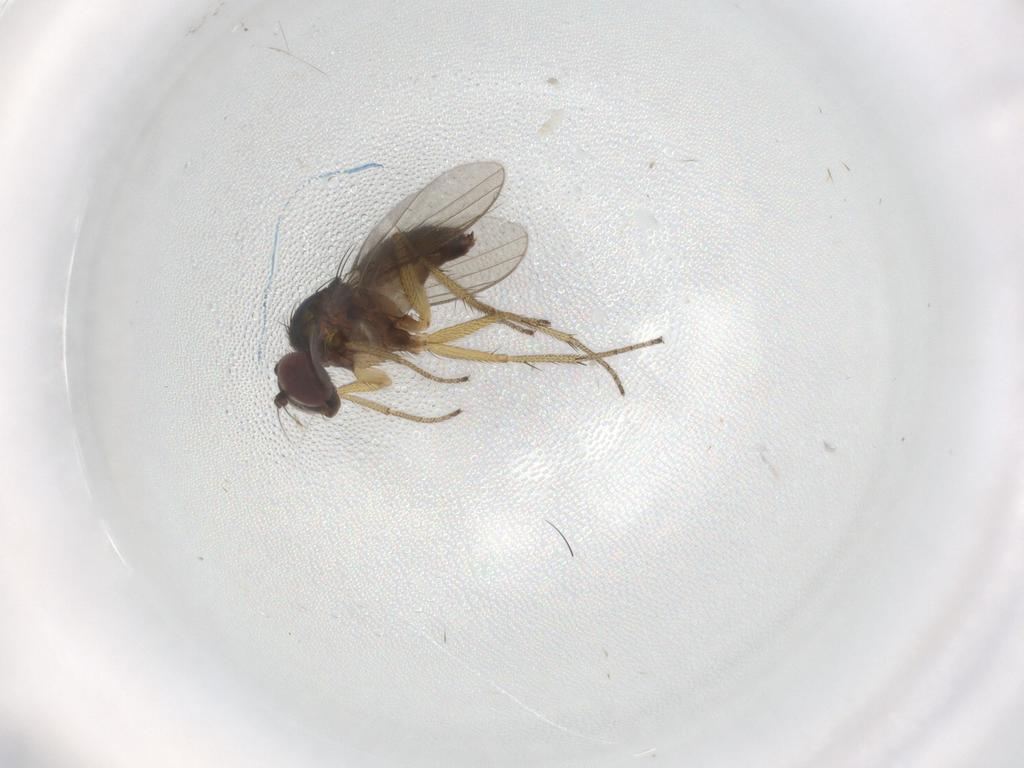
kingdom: Animalia
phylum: Arthropoda
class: Insecta
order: Diptera
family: Dolichopodidae
